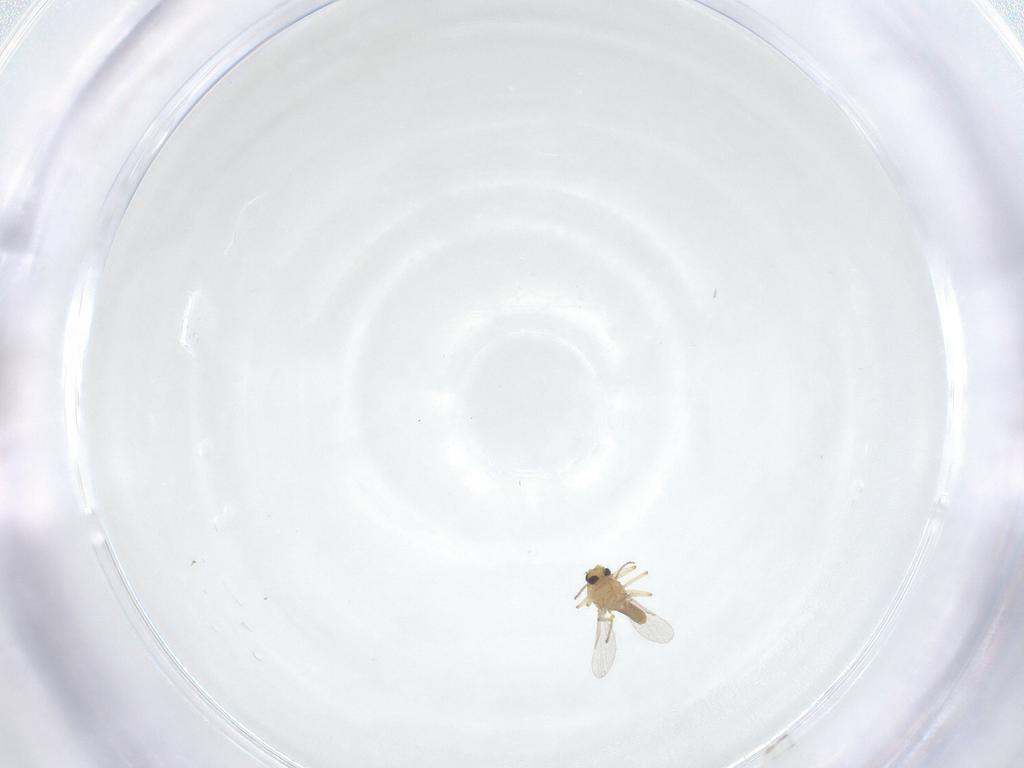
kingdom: Animalia
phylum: Arthropoda
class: Insecta
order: Diptera
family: Ceratopogonidae
